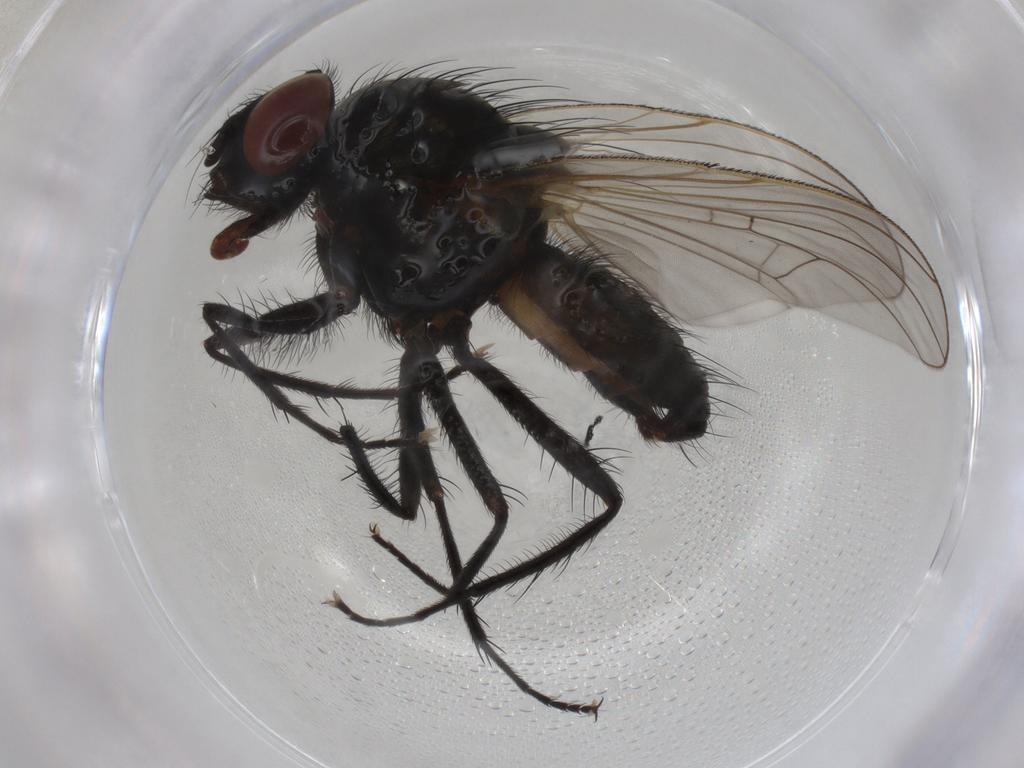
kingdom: Animalia
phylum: Arthropoda
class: Insecta
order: Diptera
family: Anthomyiidae
